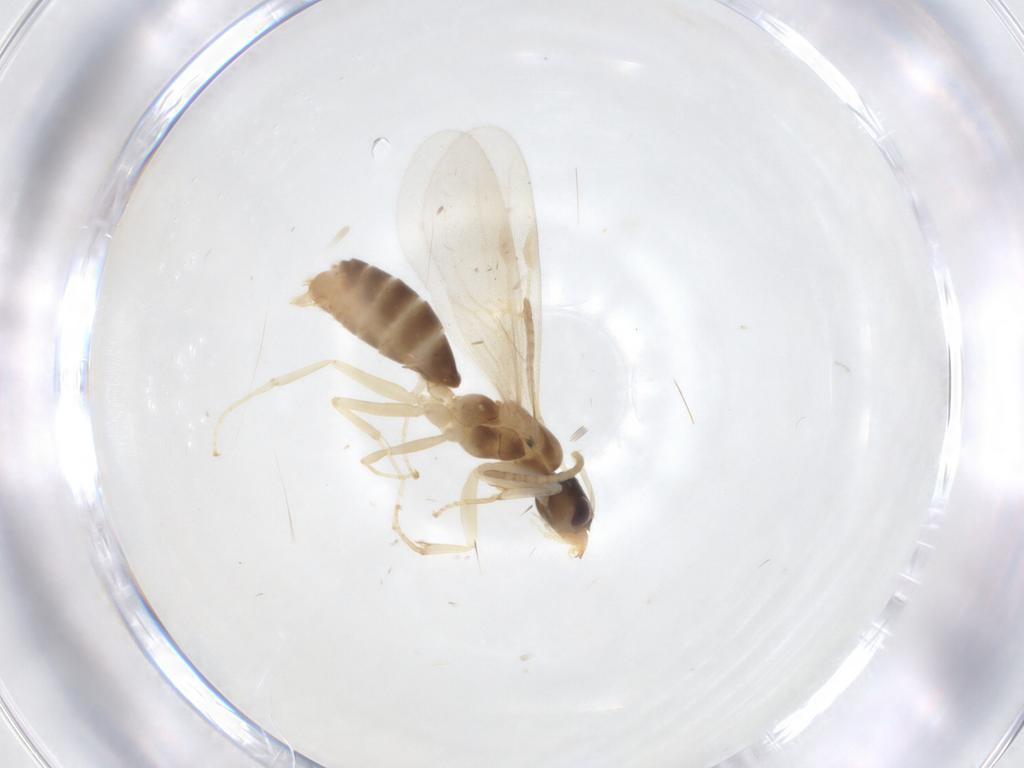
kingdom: Animalia
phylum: Arthropoda
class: Insecta
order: Hymenoptera
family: Formicidae
